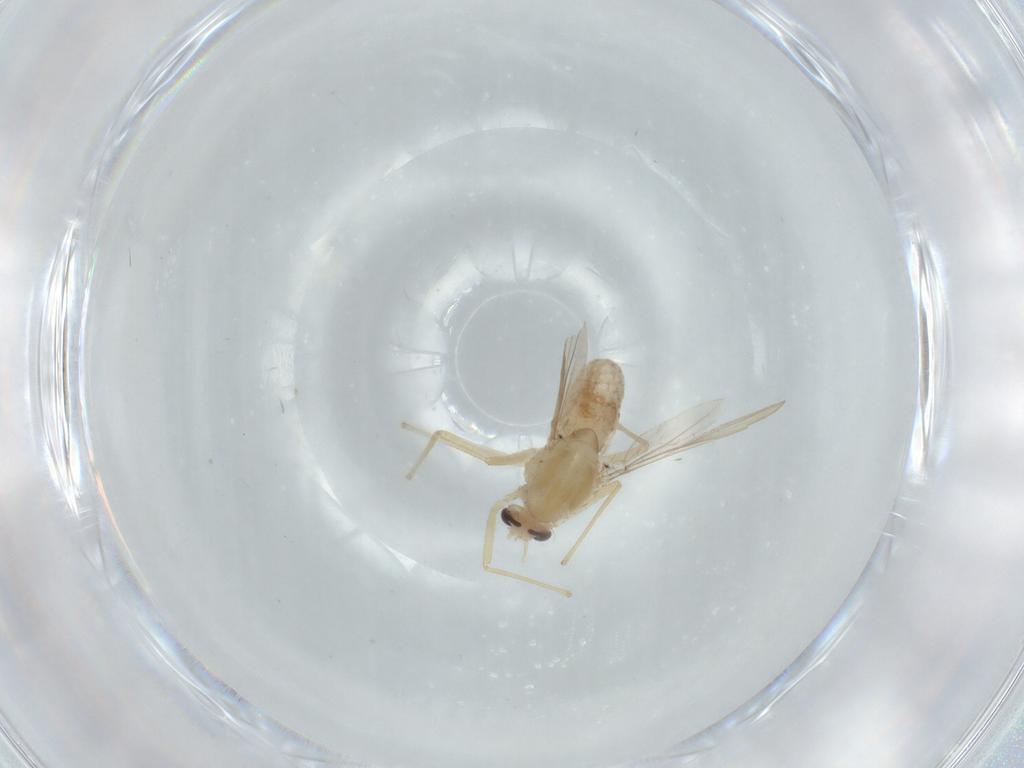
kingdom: Animalia
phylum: Arthropoda
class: Insecta
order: Diptera
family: Chironomidae
